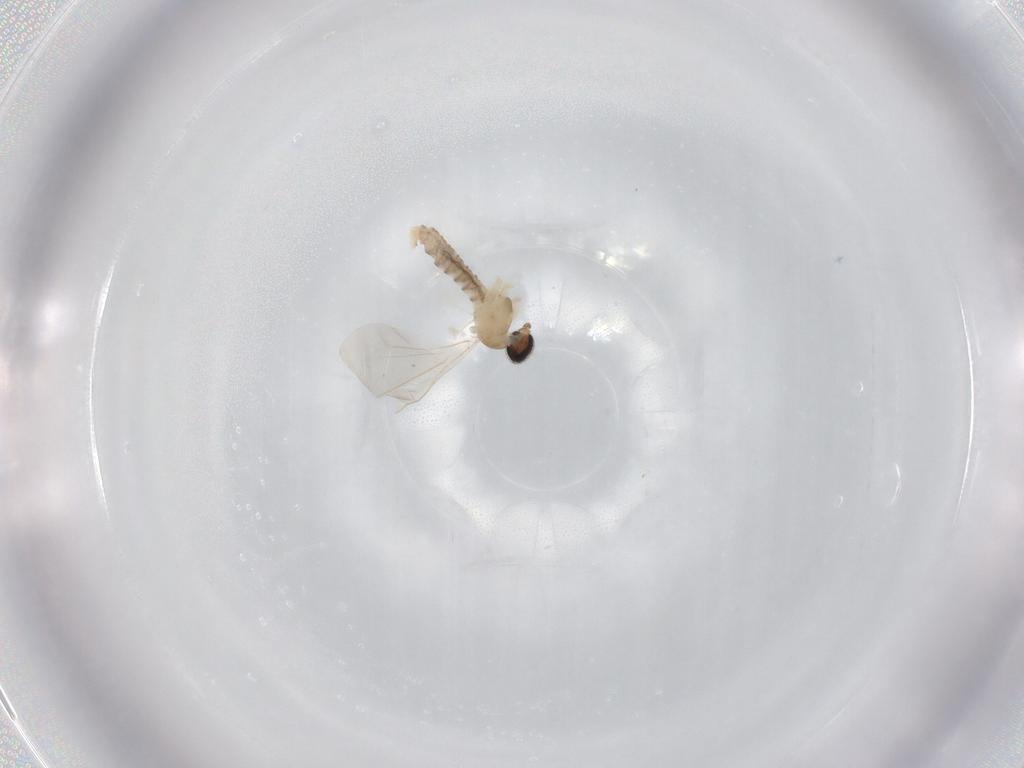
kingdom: Animalia
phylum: Arthropoda
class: Insecta
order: Diptera
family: Cecidomyiidae
